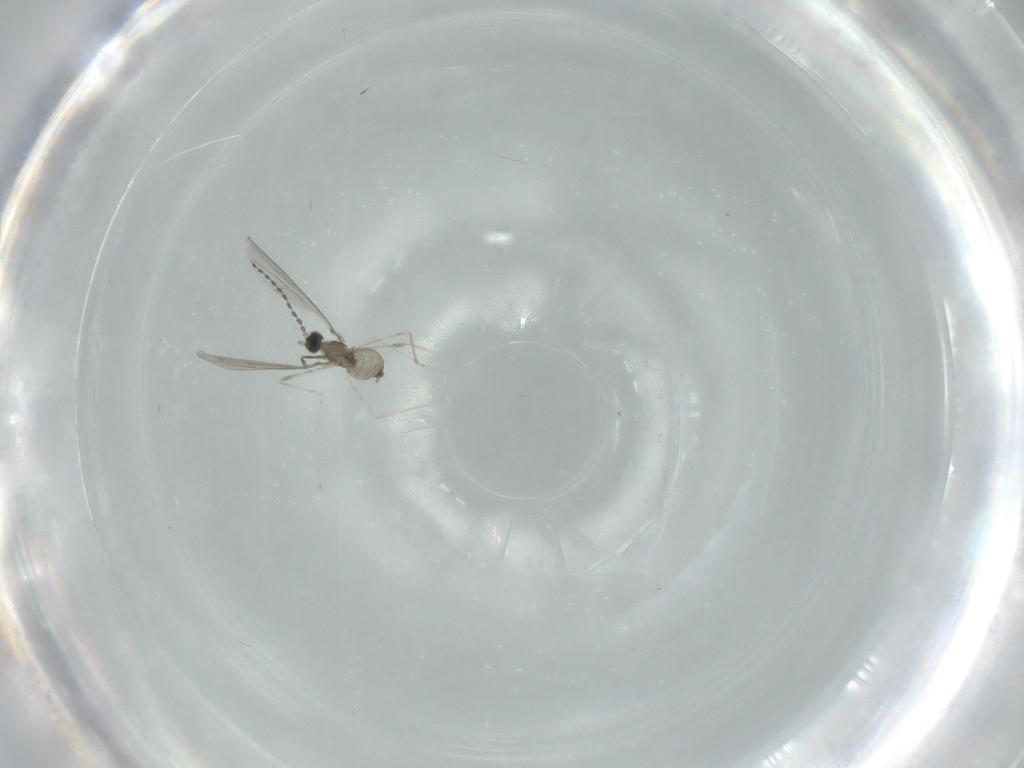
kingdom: Animalia
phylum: Arthropoda
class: Insecta
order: Diptera
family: Cecidomyiidae
